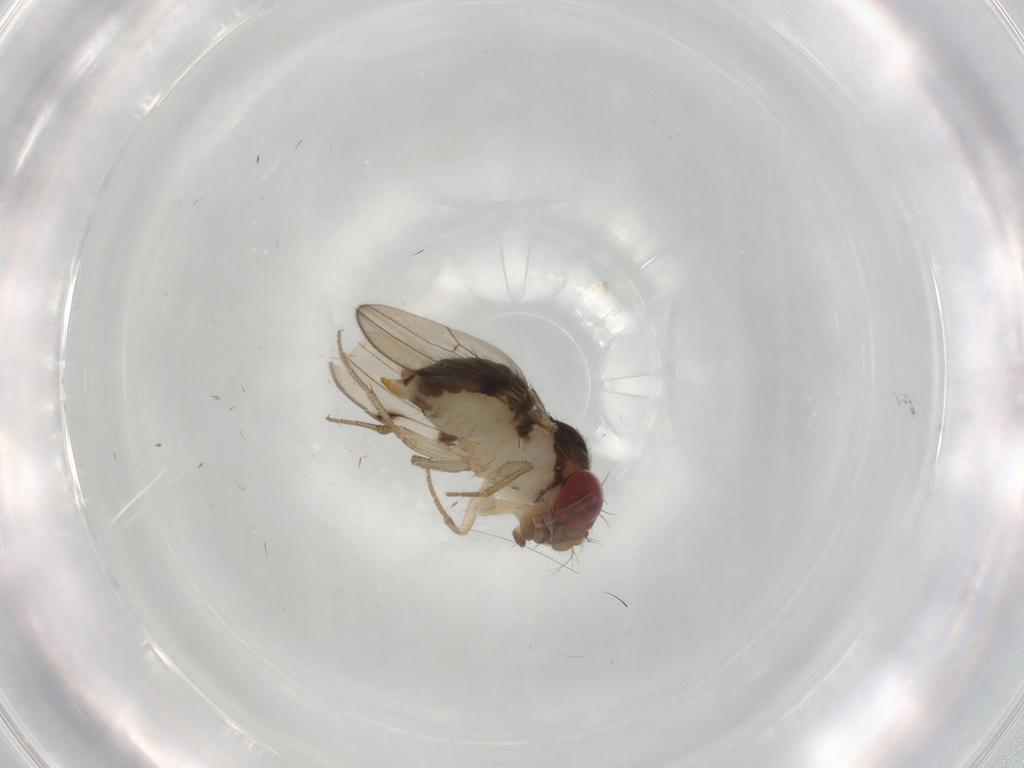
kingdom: Animalia
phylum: Arthropoda
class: Insecta
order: Diptera
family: Drosophilidae
